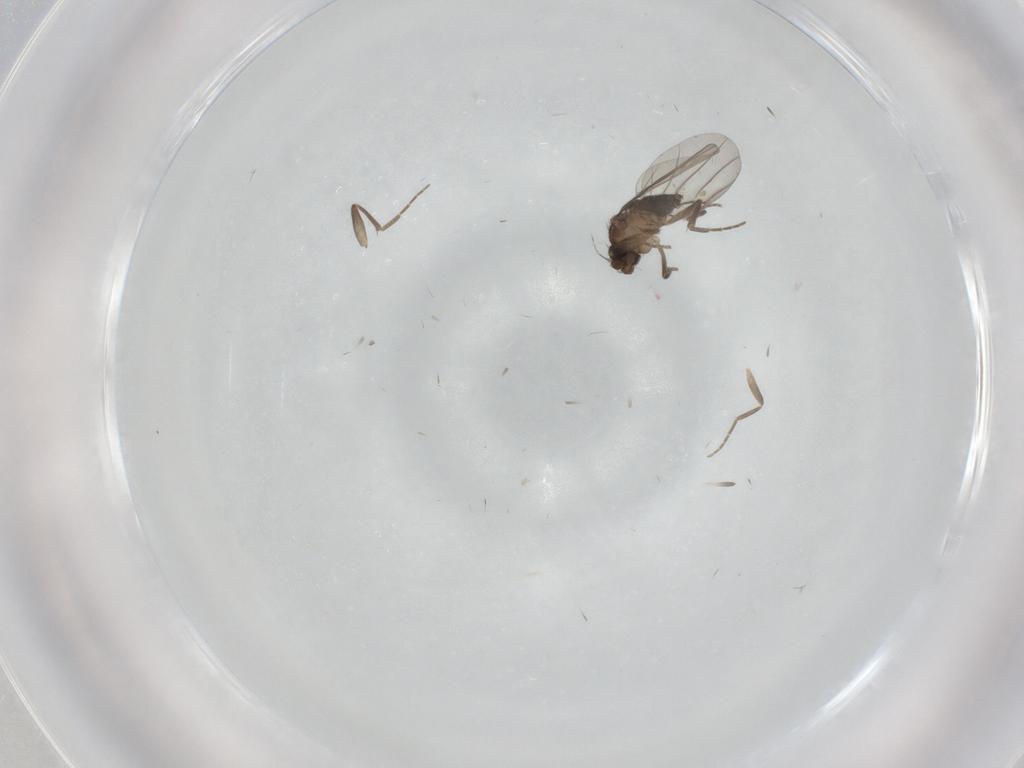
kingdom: Animalia
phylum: Arthropoda
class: Insecta
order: Diptera
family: Phoridae
